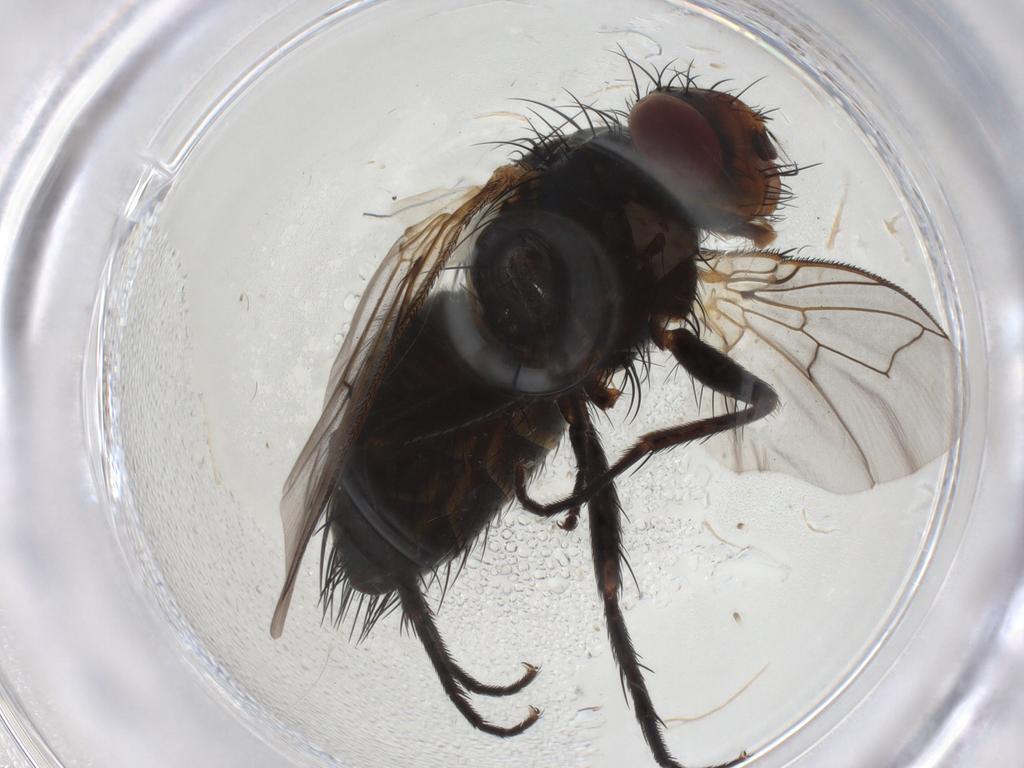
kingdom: Animalia
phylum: Arthropoda
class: Insecta
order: Diptera
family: Tachinidae
